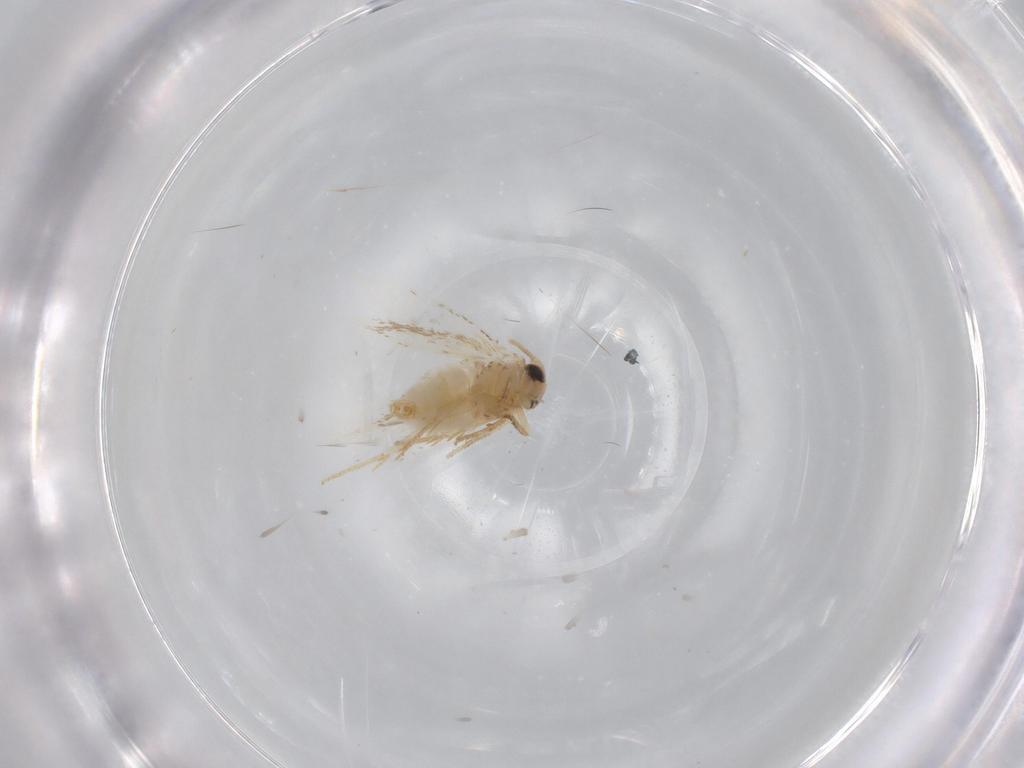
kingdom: Animalia
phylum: Arthropoda
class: Insecta
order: Lepidoptera
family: Nepticulidae
